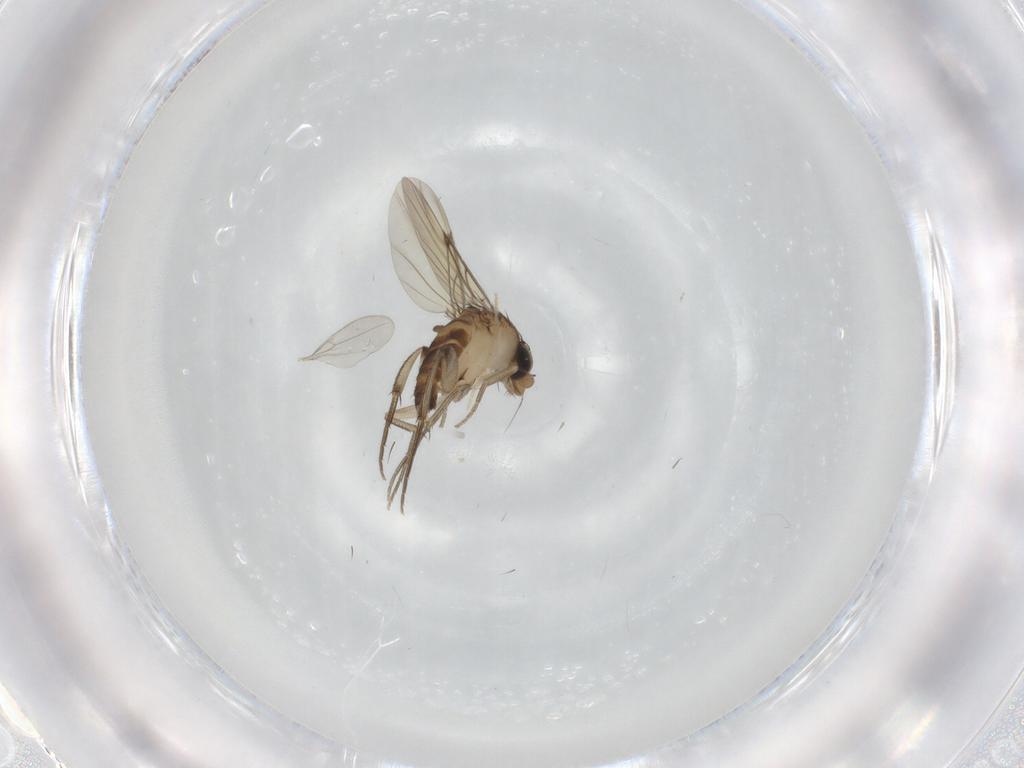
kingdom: Animalia
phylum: Arthropoda
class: Insecta
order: Diptera
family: Phoridae
